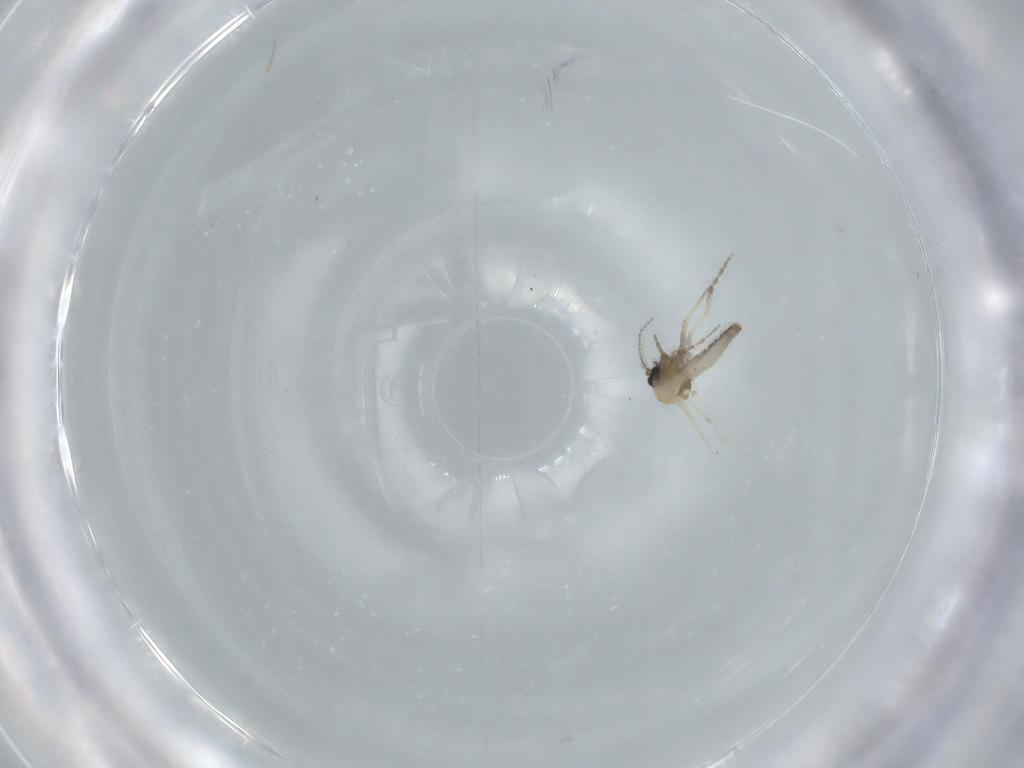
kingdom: Animalia
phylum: Arthropoda
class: Insecta
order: Diptera
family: Ceratopogonidae
